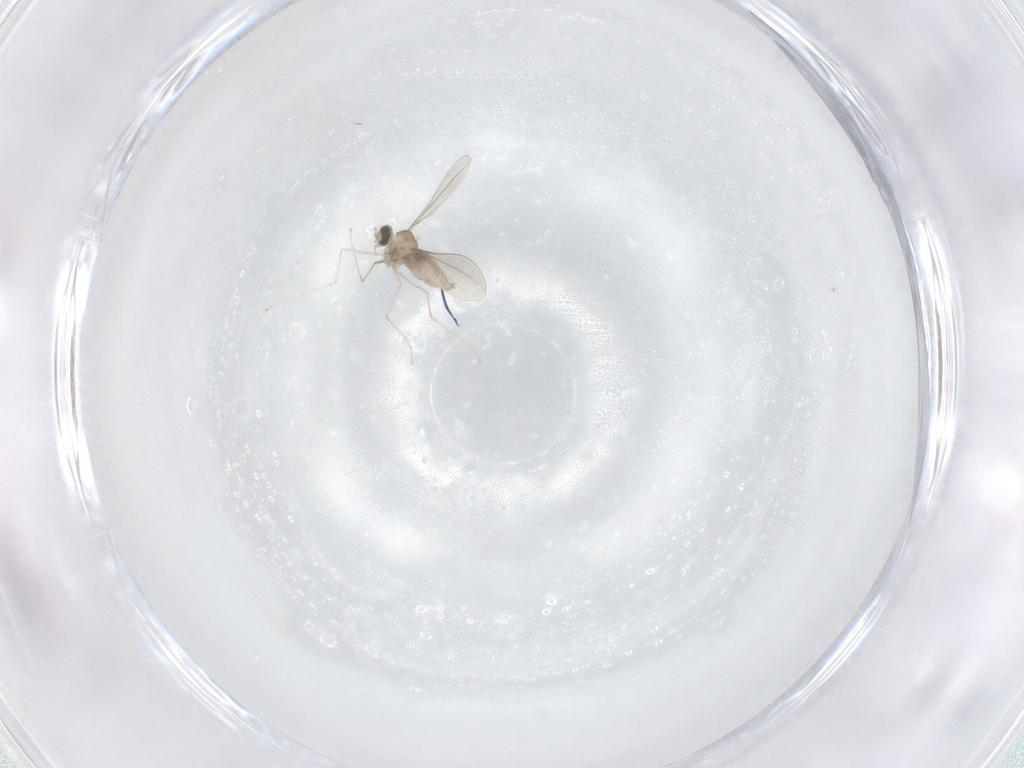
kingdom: Animalia
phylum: Arthropoda
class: Insecta
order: Diptera
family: Cecidomyiidae
